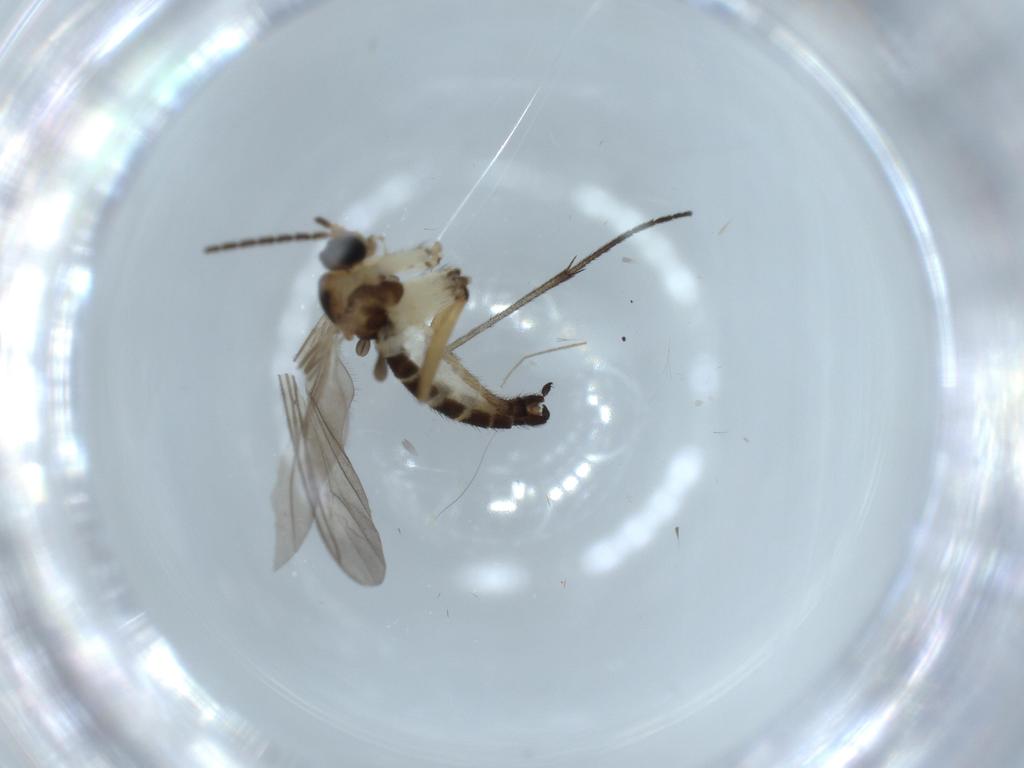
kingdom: Animalia
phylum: Arthropoda
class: Insecta
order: Diptera
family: Sciaridae
